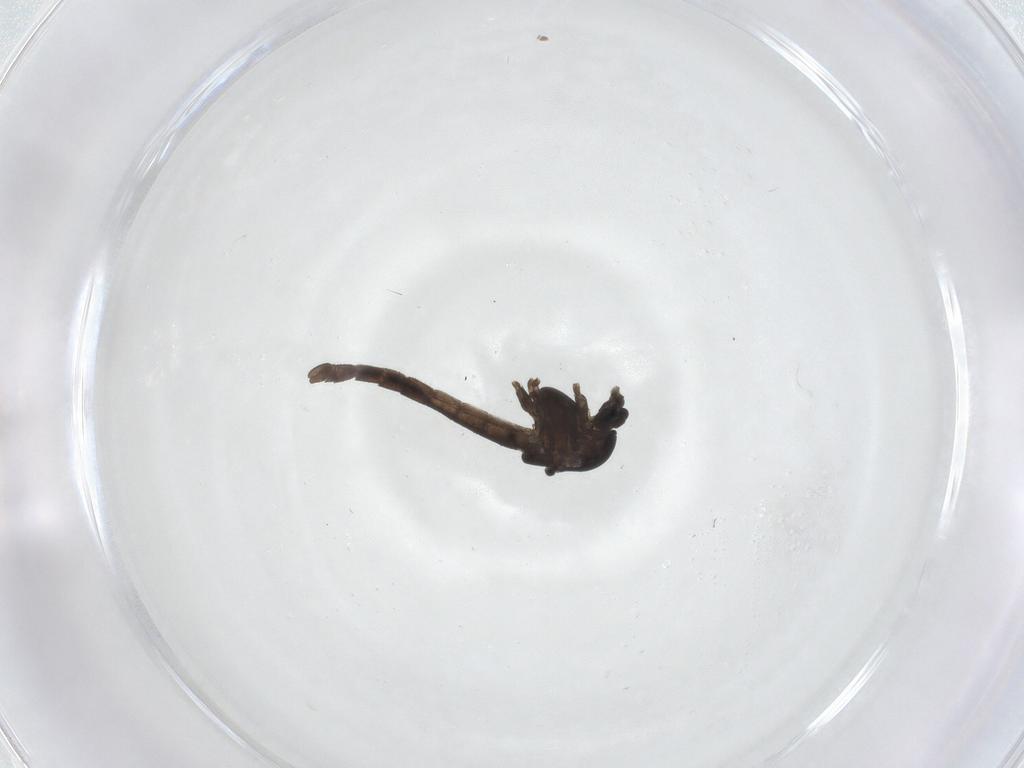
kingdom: Animalia
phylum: Arthropoda
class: Insecta
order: Diptera
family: Chironomidae
